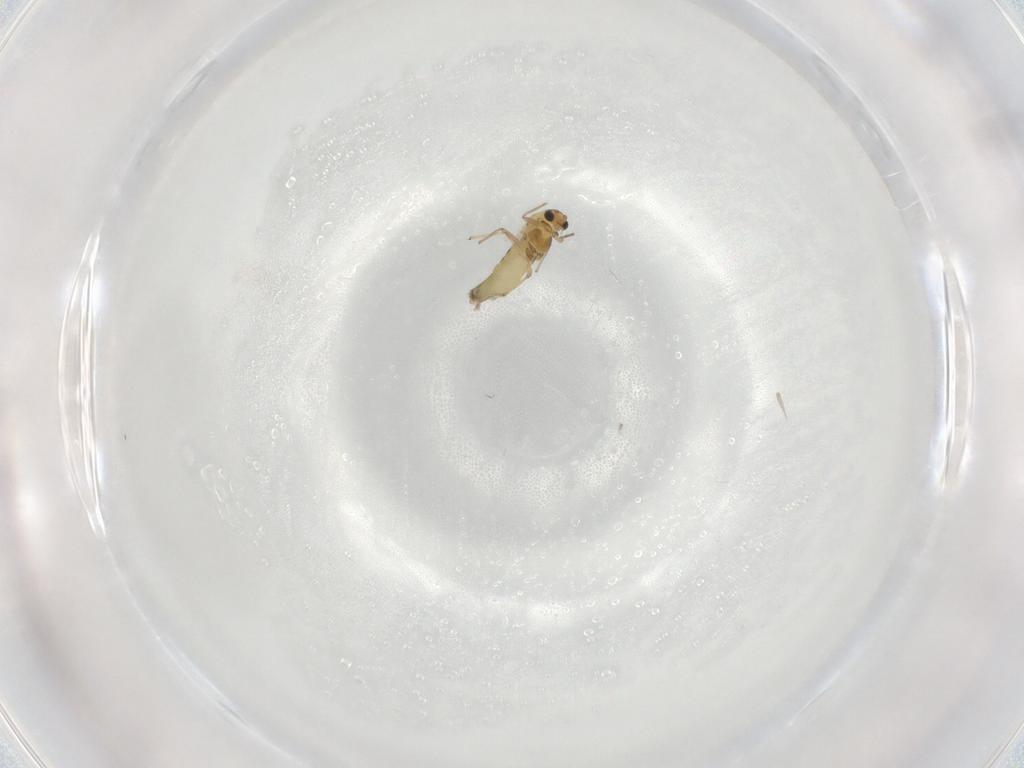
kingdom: Animalia
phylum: Arthropoda
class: Insecta
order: Diptera
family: Chironomidae
